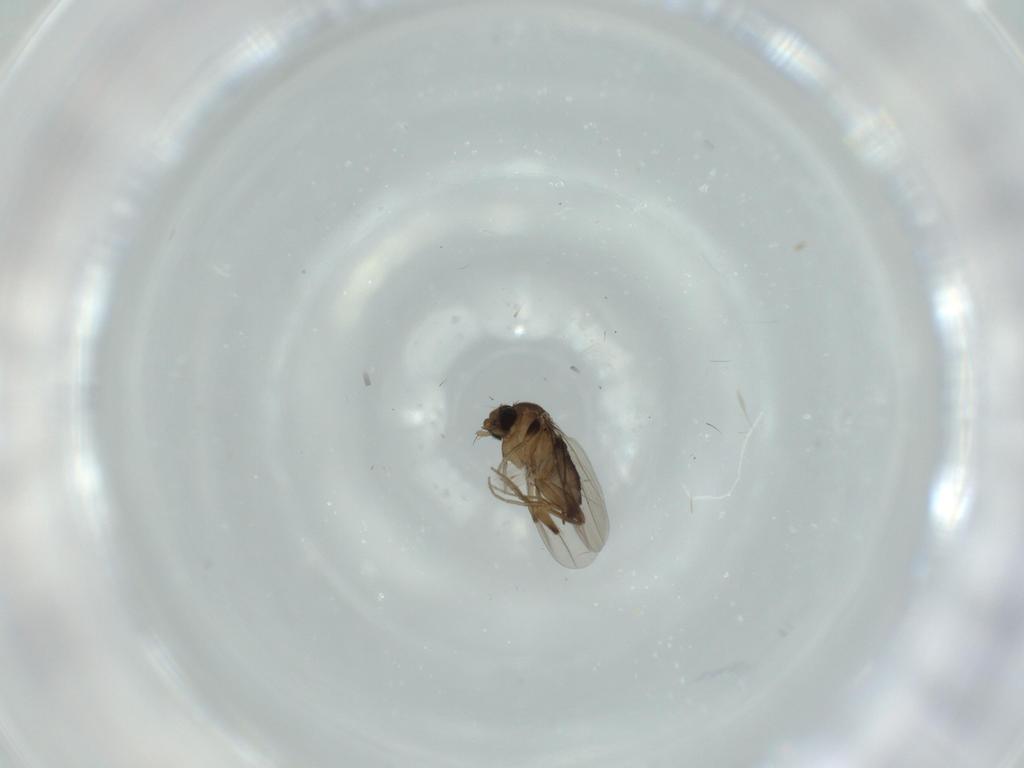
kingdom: Animalia
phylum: Arthropoda
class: Insecta
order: Diptera
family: Phoridae
